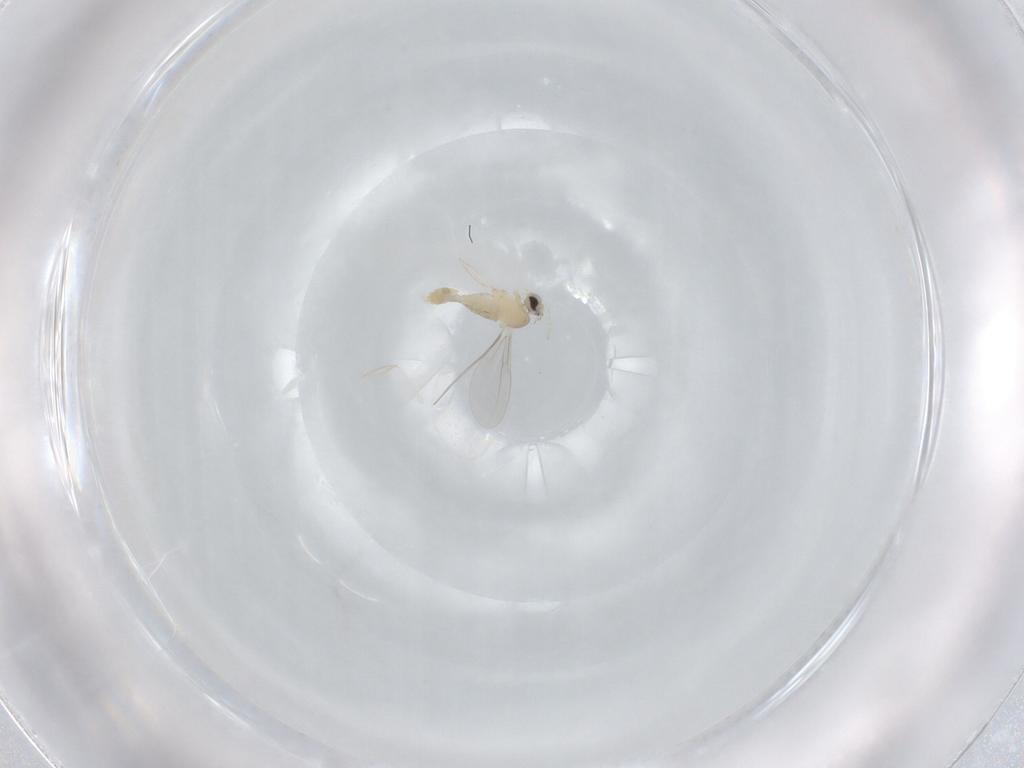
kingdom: Animalia
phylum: Arthropoda
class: Insecta
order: Diptera
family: Cecidomyiidae
